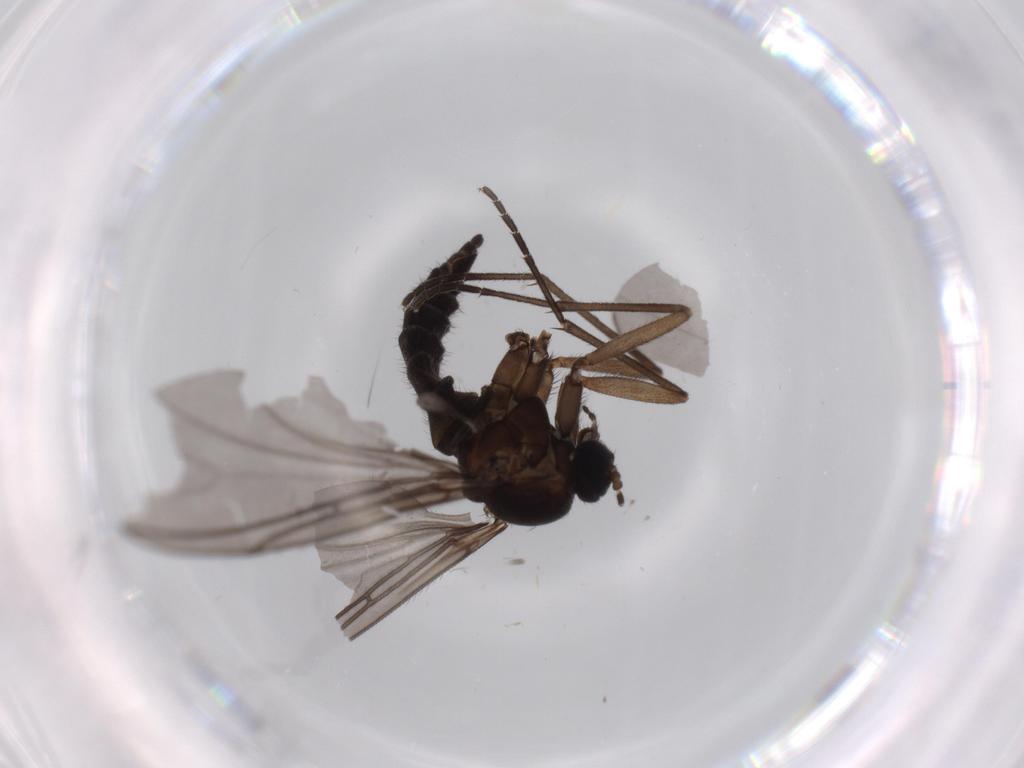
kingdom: Animalia
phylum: Arthropoda
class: Insecta
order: Diptera
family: Sciaridae
